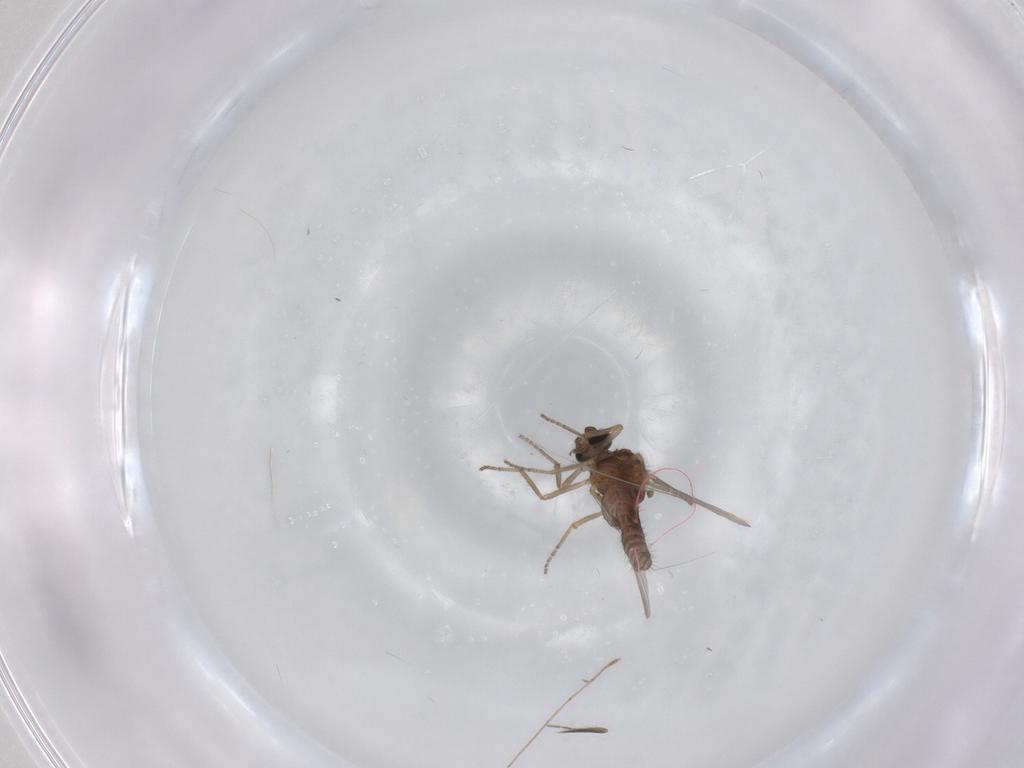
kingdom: Animalia
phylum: Arthropoda
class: Insecta
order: Diptera
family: Ceratopogonidae
